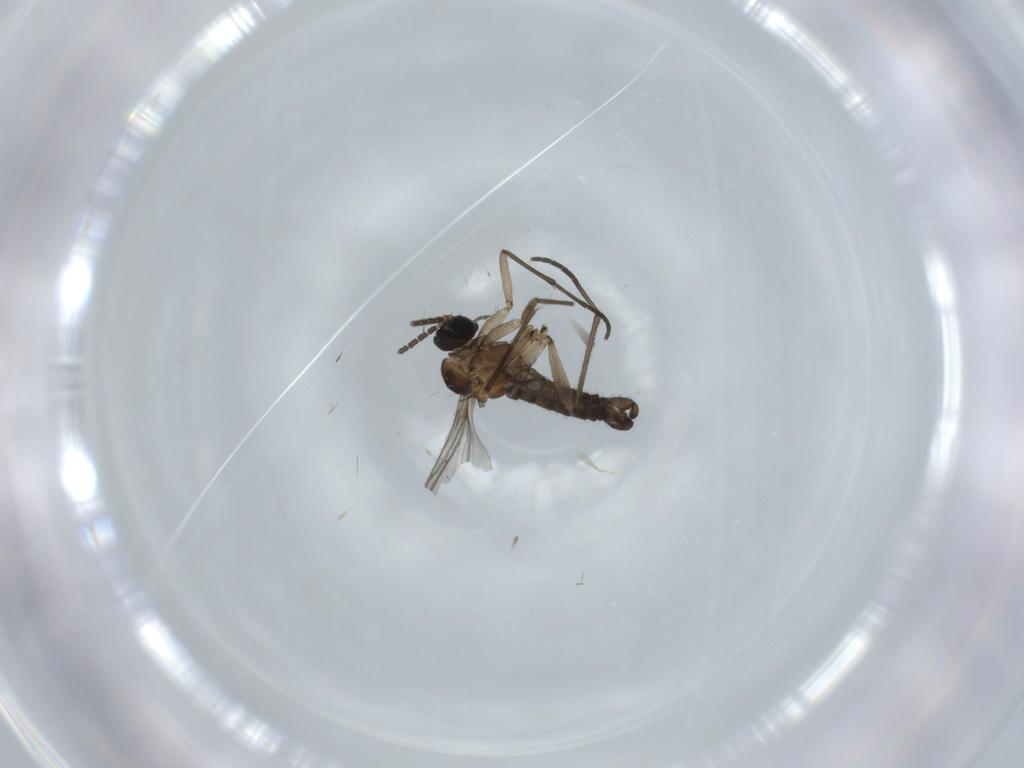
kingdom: Animalia
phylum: Arthropoda
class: Insecta
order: Diptera
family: Sciaridae
